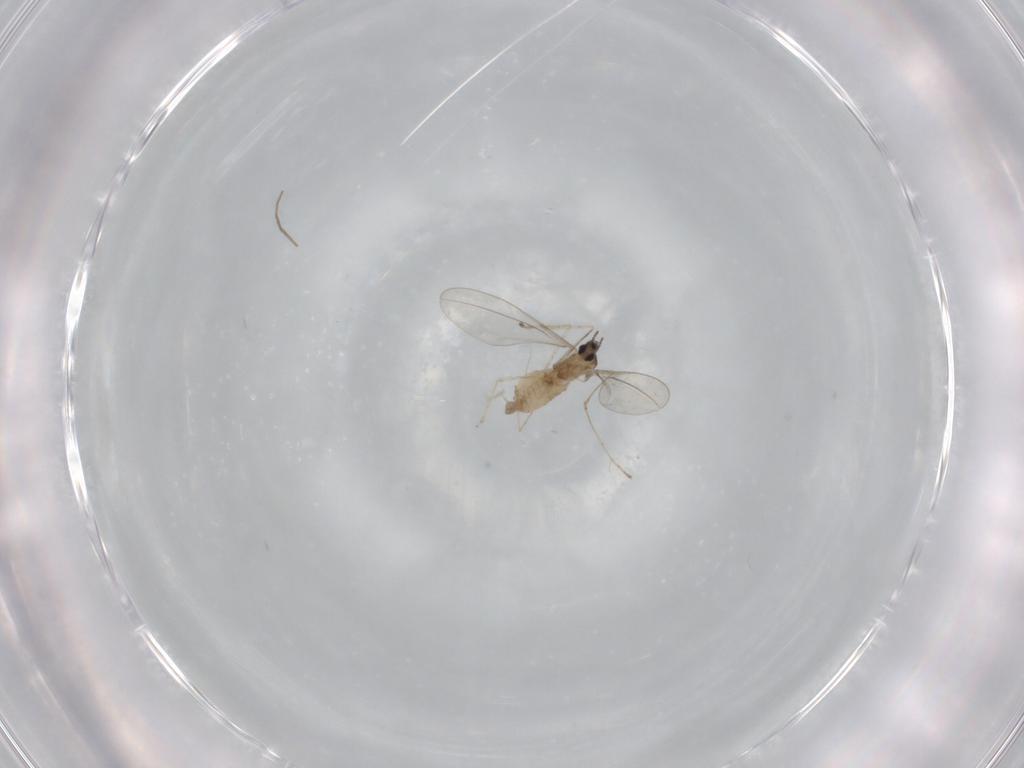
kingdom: Animalia
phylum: Arthropoda
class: Insecta
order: Diptera
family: Cecidomyiidae
